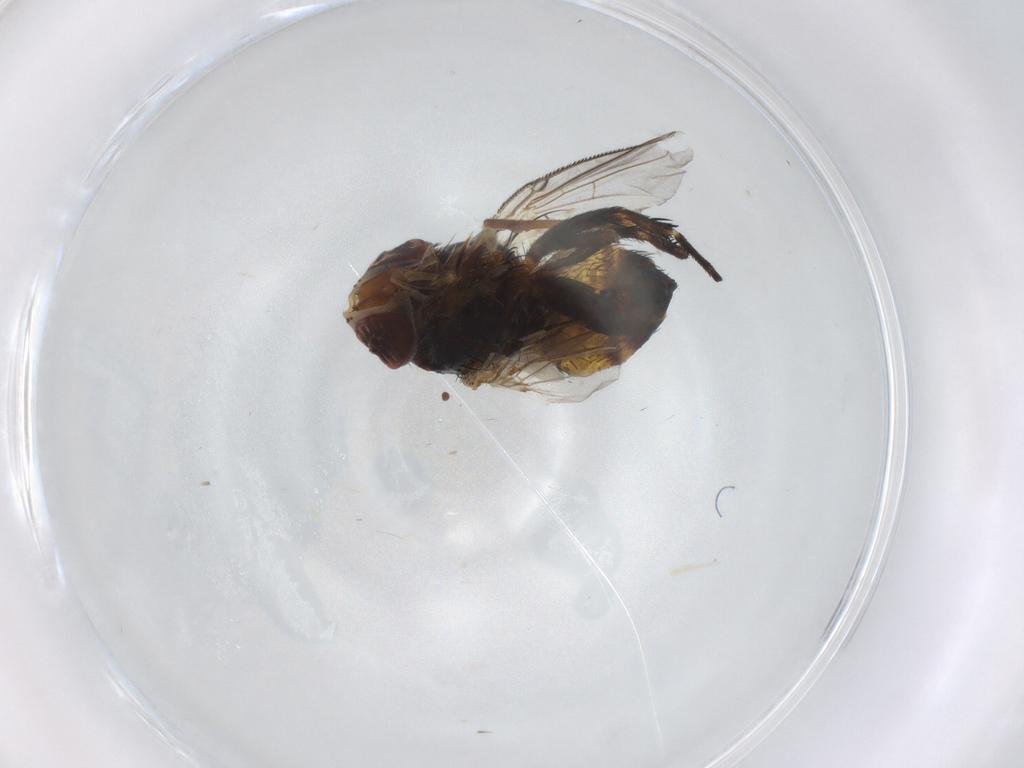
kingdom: Animalia
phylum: Arthropoda
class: Insecta
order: Diptera
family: Dolichopodidae
